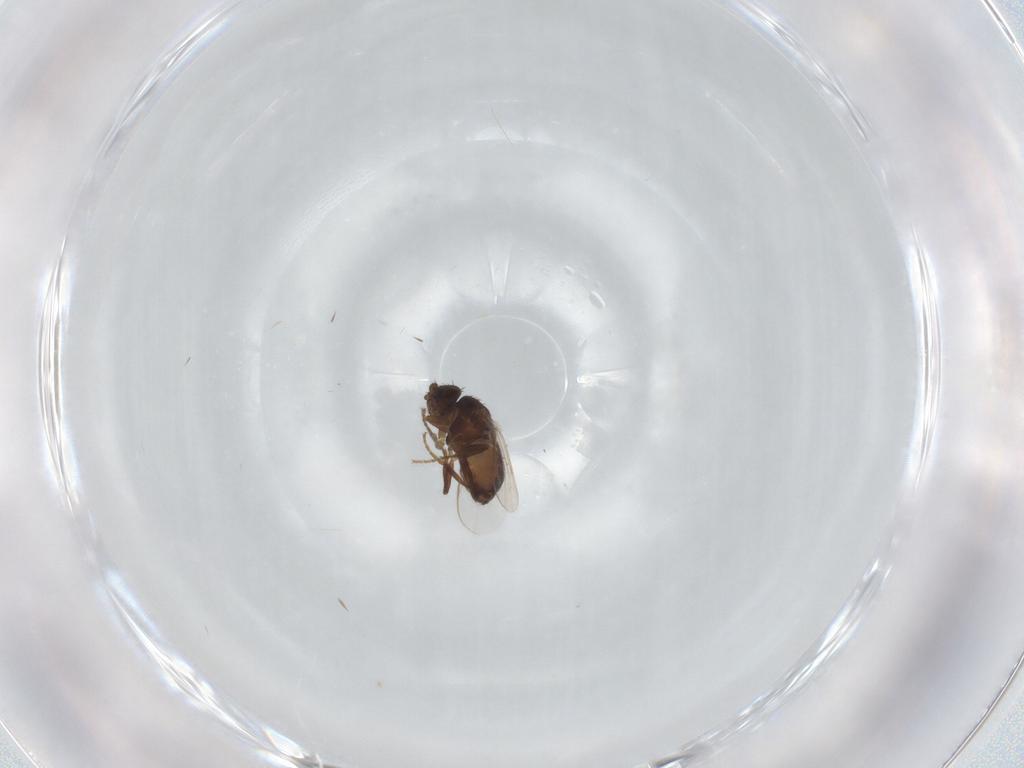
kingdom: Animalia
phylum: Arthropoda
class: Insecta
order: Diptera
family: Sphaeroceridae
